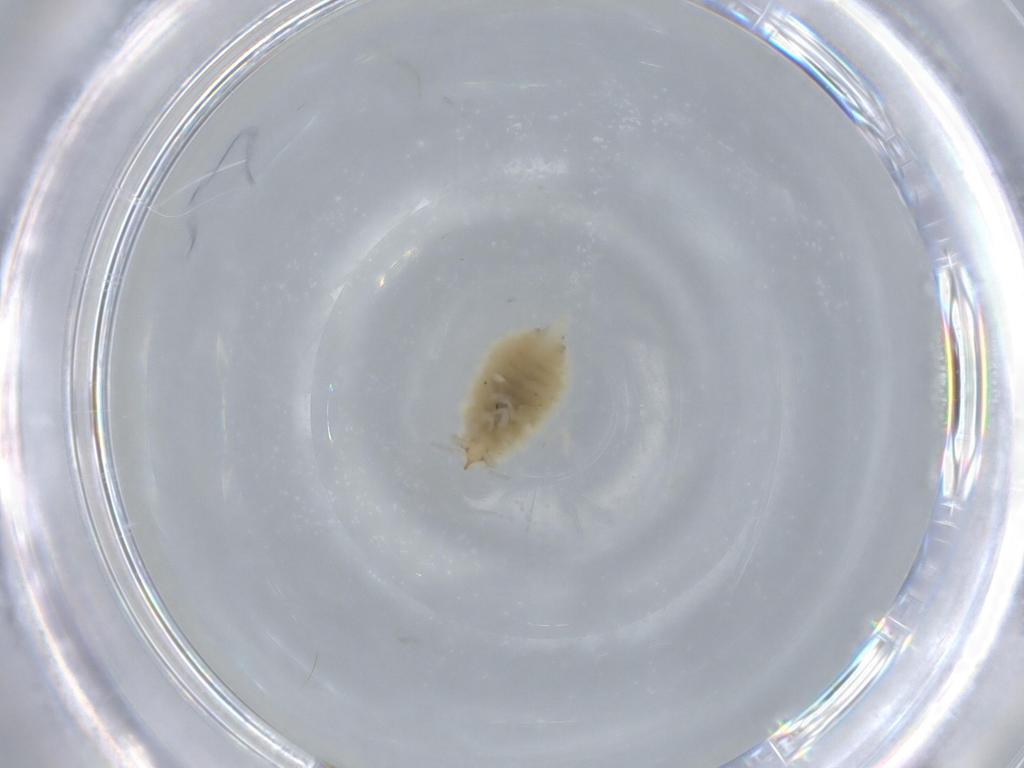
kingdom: Animalia
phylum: Arthropoda
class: Insecta
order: Neuroptera
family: Coniopterygidae
